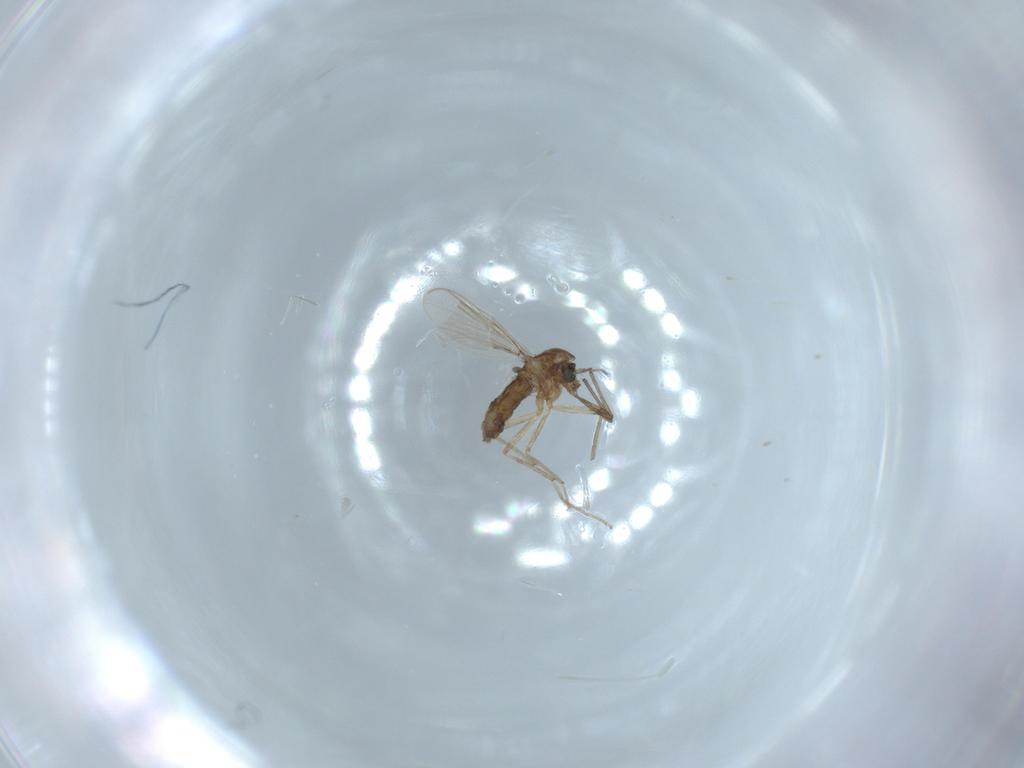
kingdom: Animalia
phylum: Arthropoda
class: Insecta
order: Diptera
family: Chironomidae
